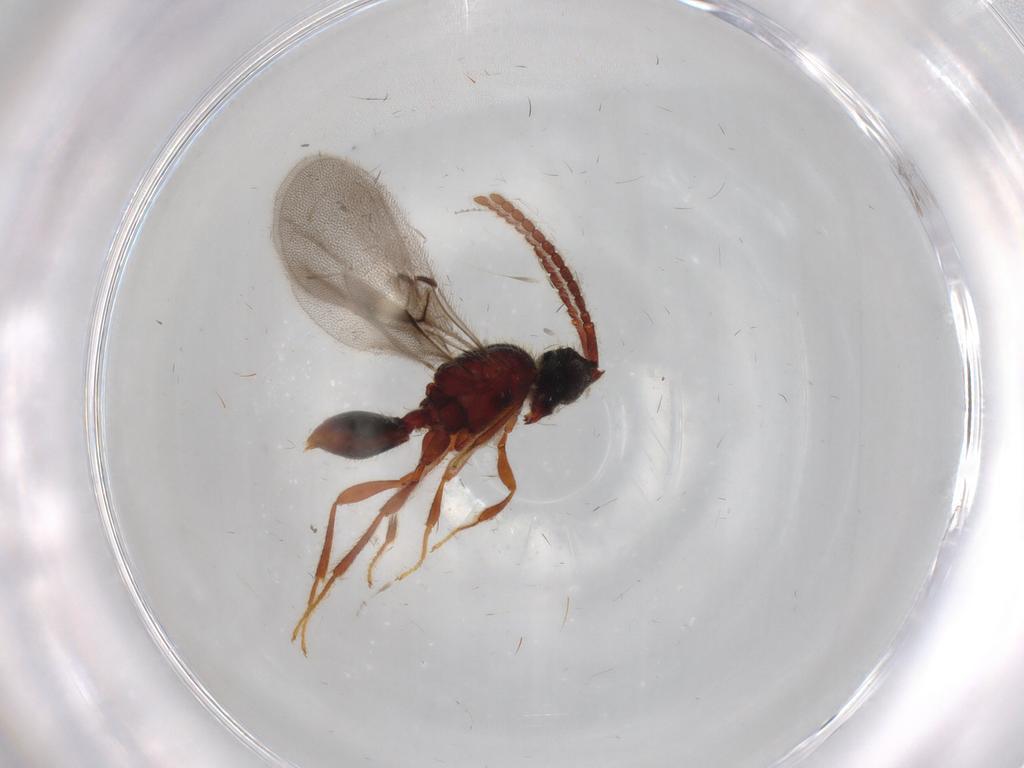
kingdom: Animalia
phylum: Arthropoda
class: Insecta
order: Hymenoptera
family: Diapriidae
